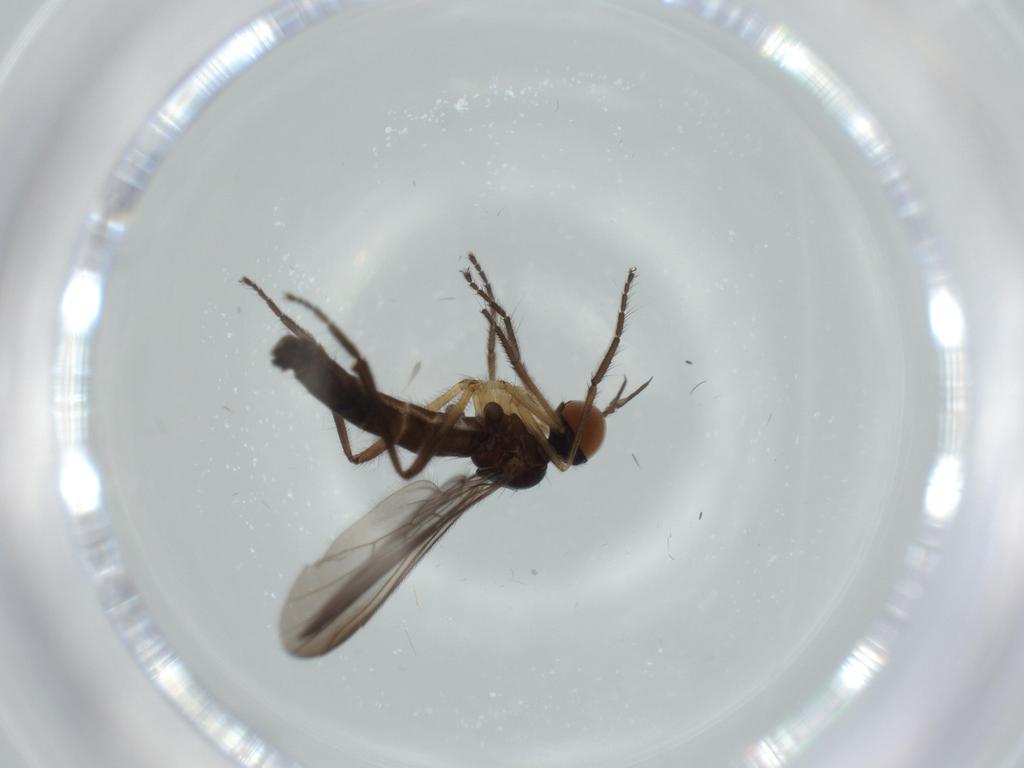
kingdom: Animalia
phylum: Arthropoda
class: Insecta
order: Diptera
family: Empididae
